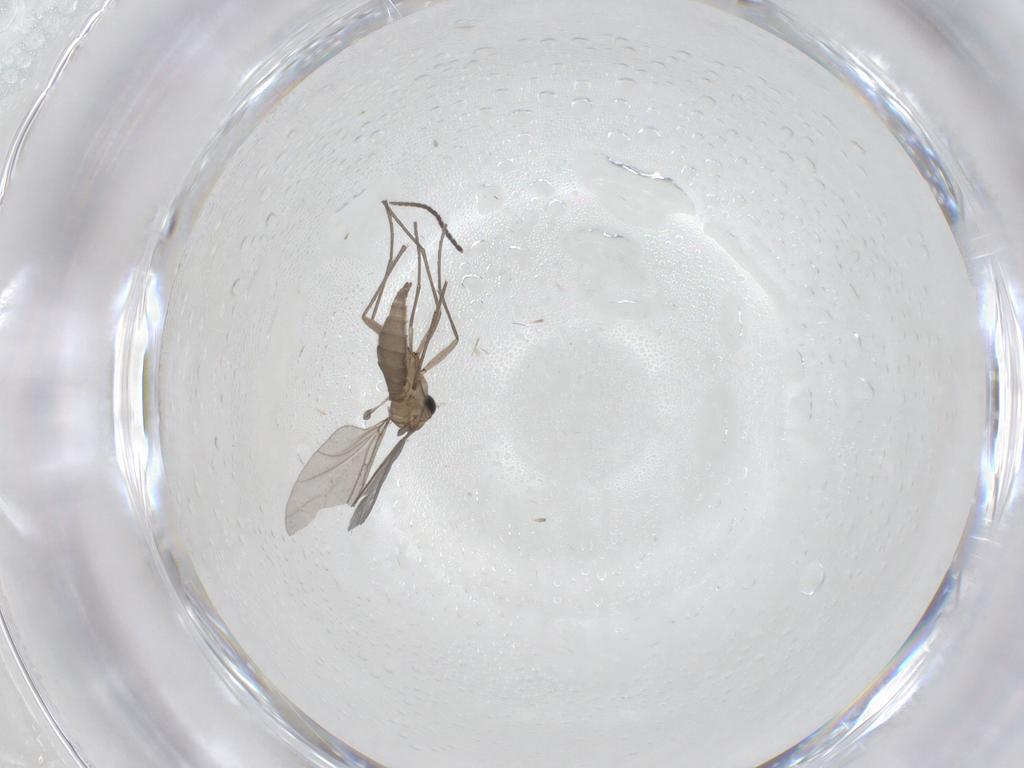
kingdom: Animalia
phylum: Arthropoda
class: Insecta
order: Diptera
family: Sciaridae
